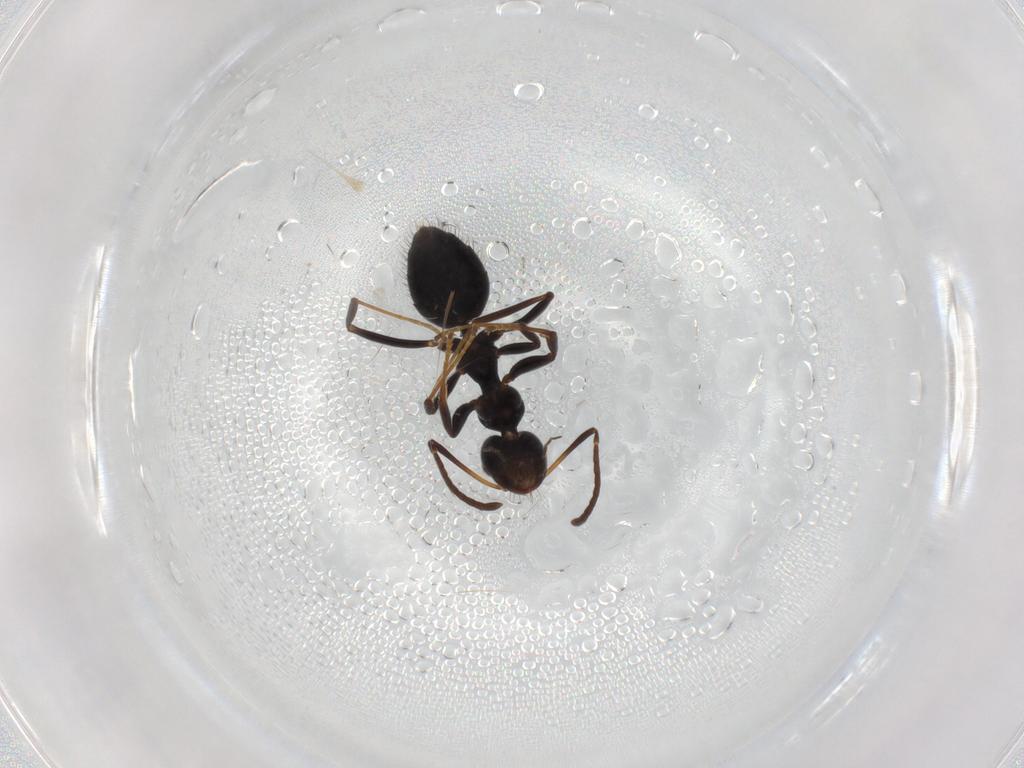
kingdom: Animalia
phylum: Arthropoda
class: Insecta
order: Hymenoptera
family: Formicidae
